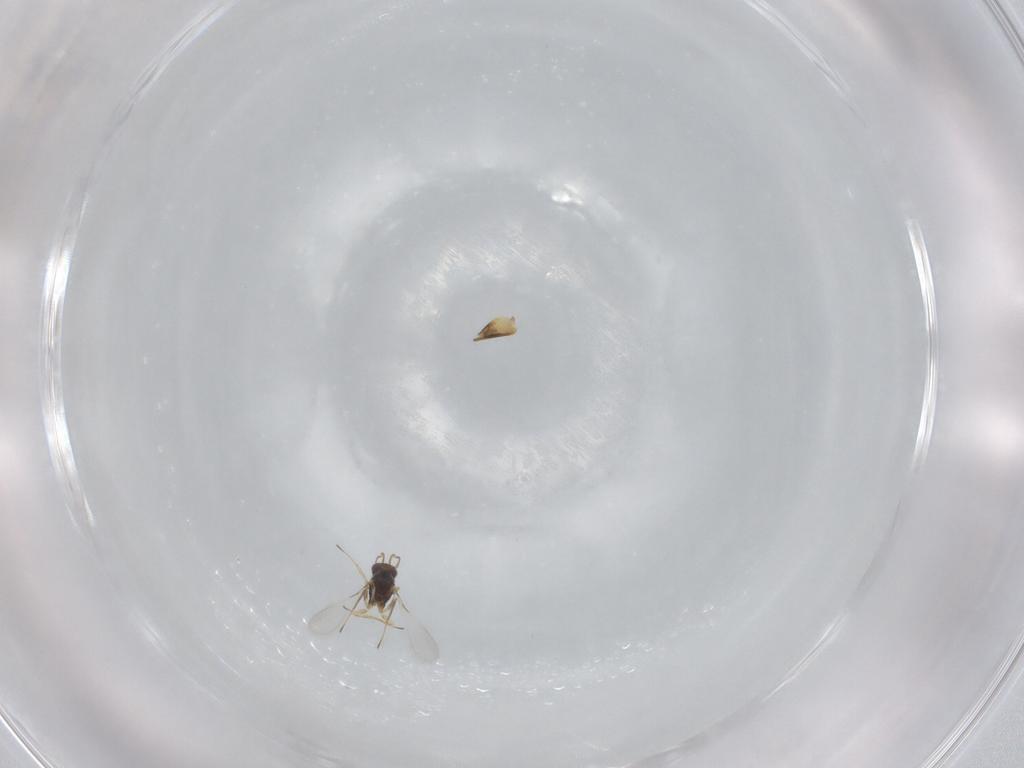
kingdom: Animalia
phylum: Arthropoda
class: Insecta
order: Hymenoptera
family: Mymaridae
